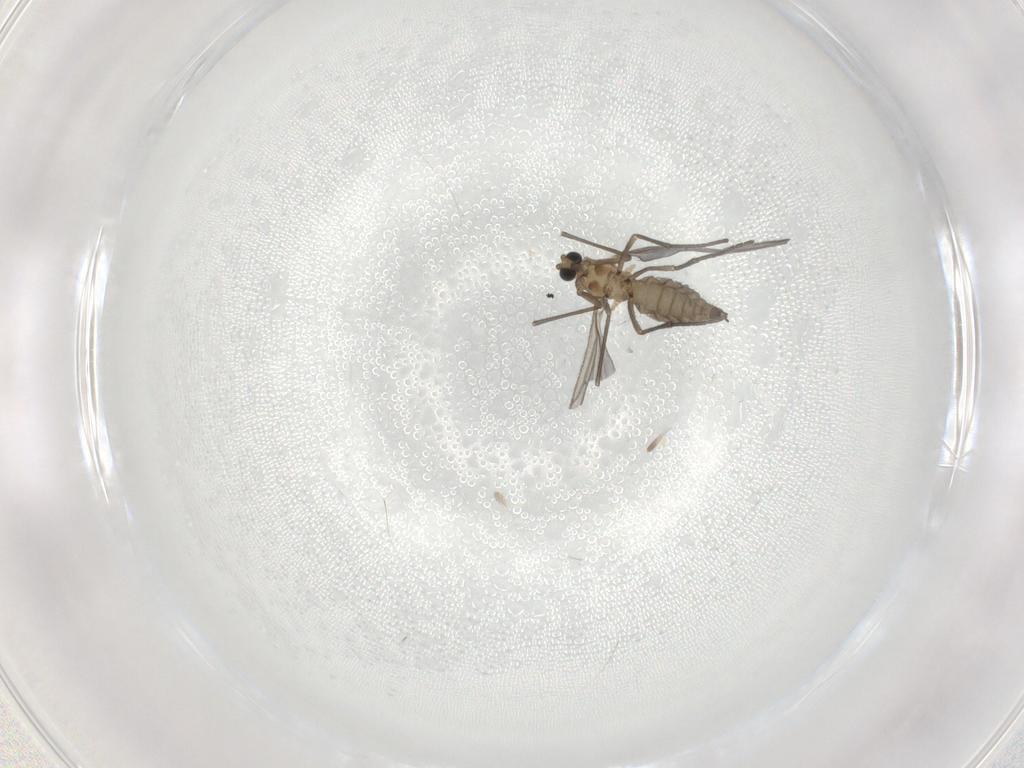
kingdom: Animalia
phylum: Arthropoda
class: Insecta
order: Diptera
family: Sciaridae
